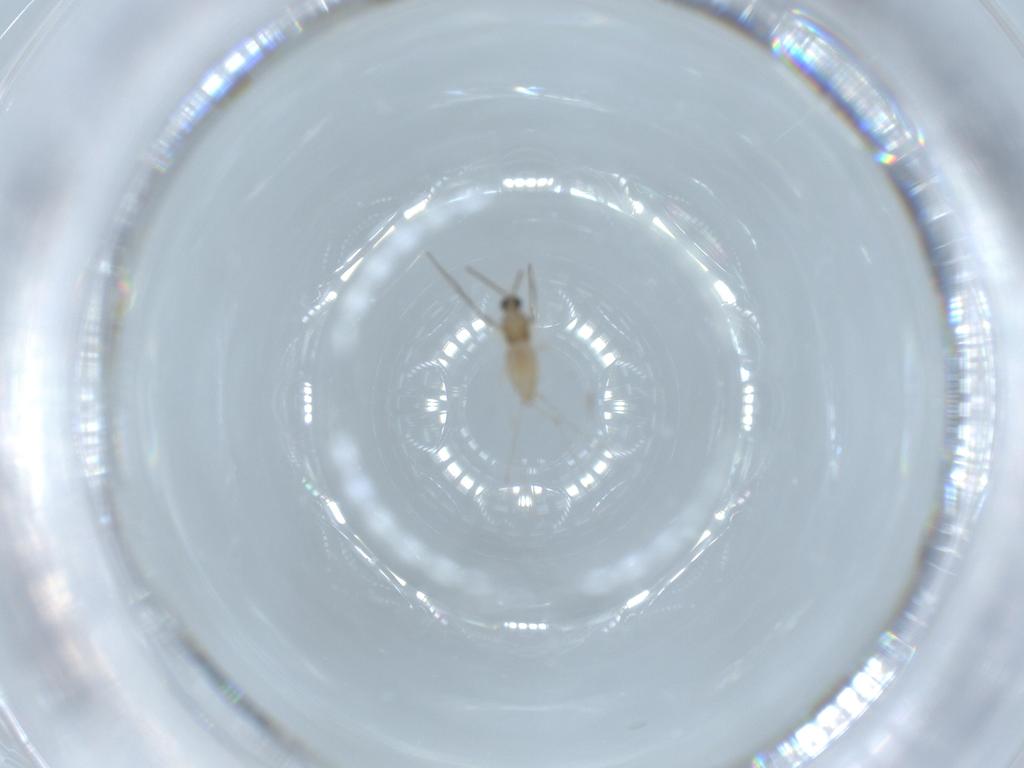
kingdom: Animalia
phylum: Arthropoda
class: Insecta
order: Diptera
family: Cecidomyiidae
